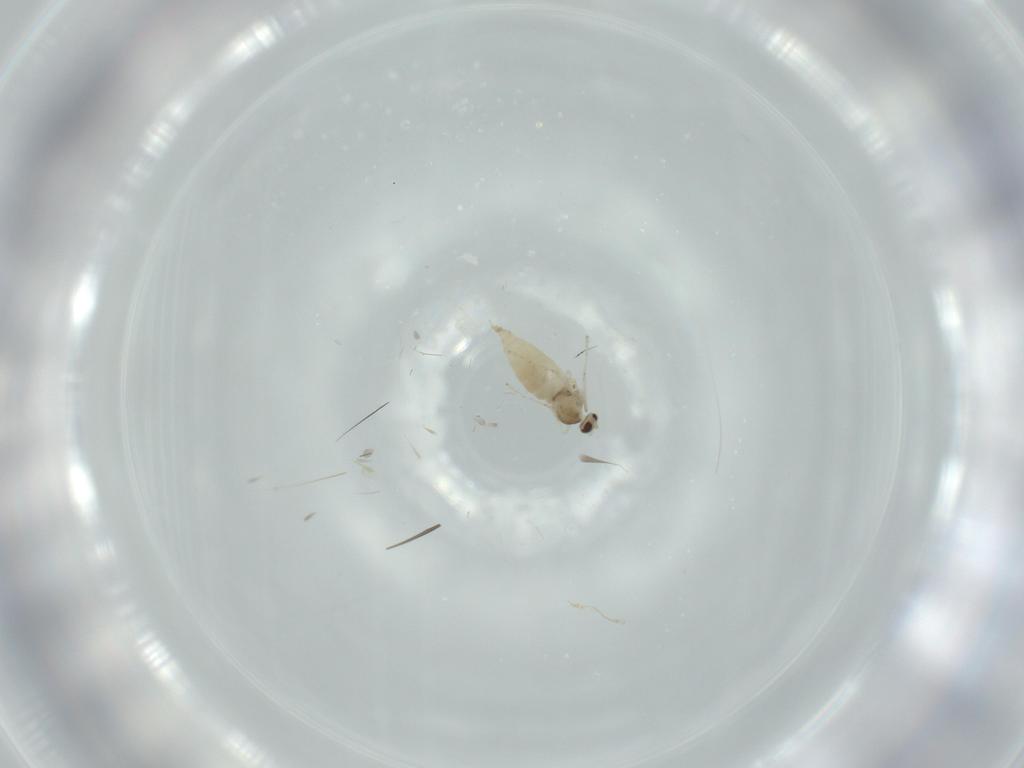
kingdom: Animalia
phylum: Arthropoda
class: Insecta
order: Diptera
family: Cecidomyiidae
